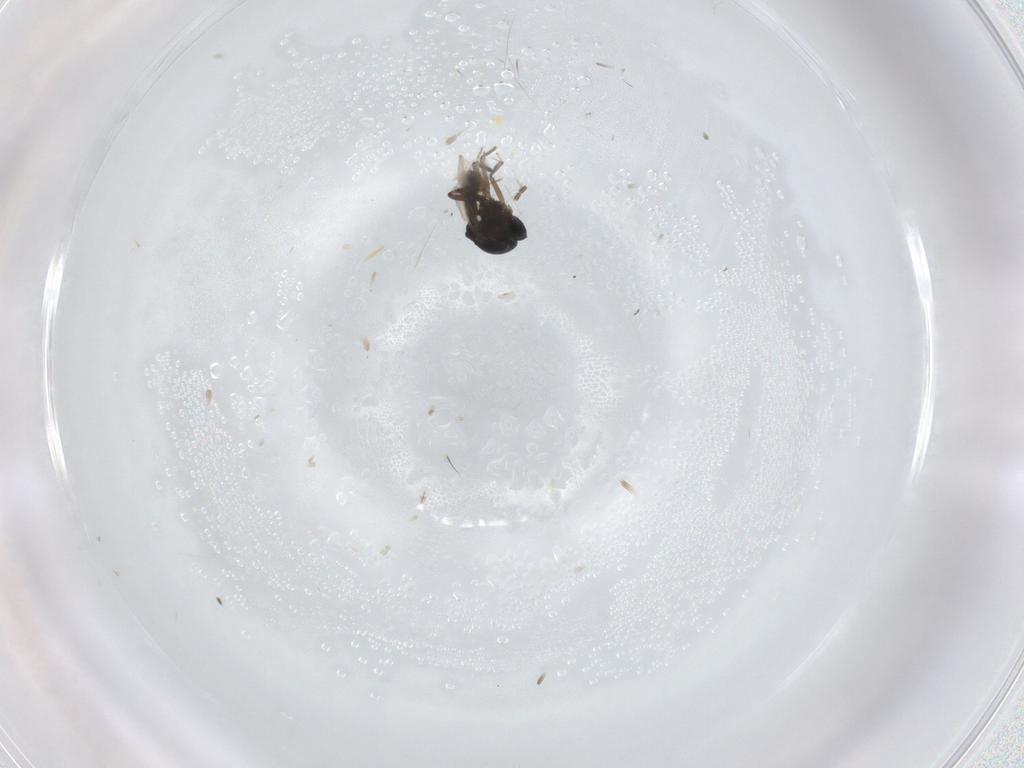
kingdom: Animalia
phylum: Arthropoda
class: Insecta
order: Diptera
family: Sciaridae
